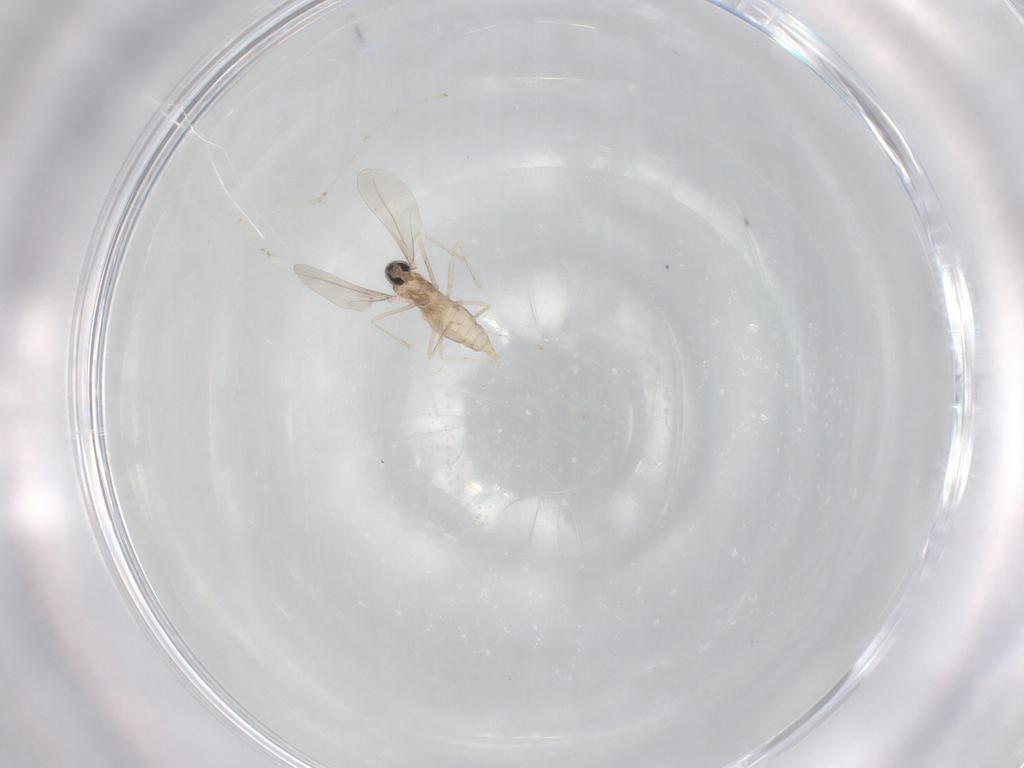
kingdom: Animalia
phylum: Arthropoda
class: Insecta
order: Diptera
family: Cecidomyiidae
